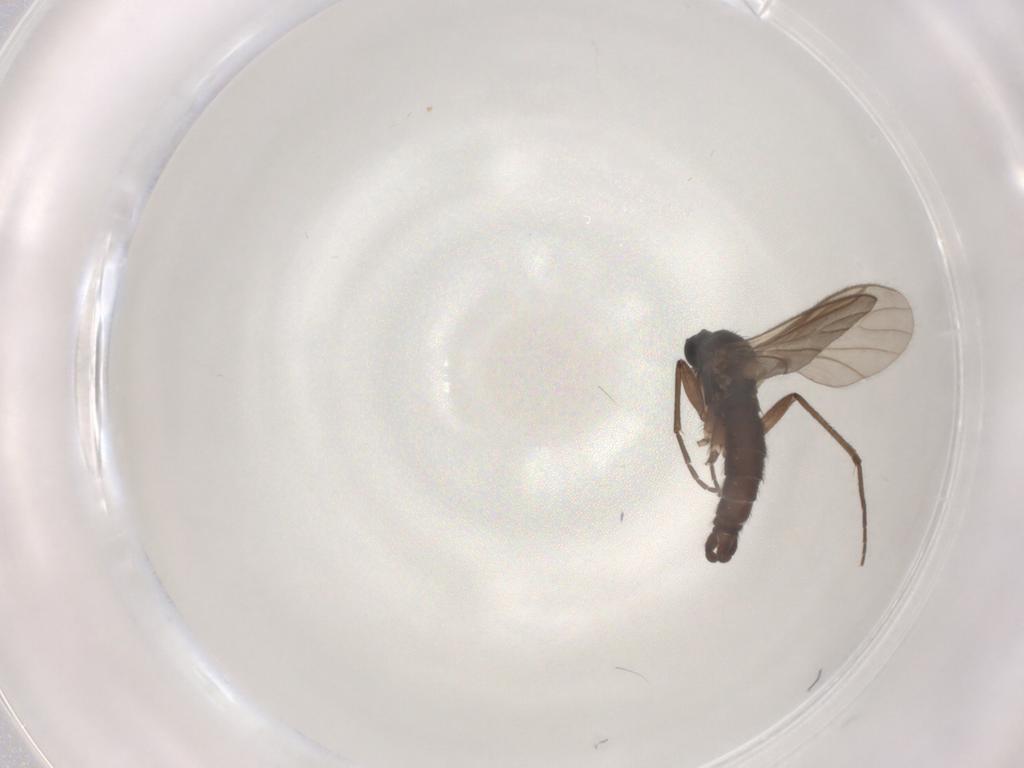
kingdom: Animalia
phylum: Arthropoda
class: Insecta
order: Diptera
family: Sciaridae
